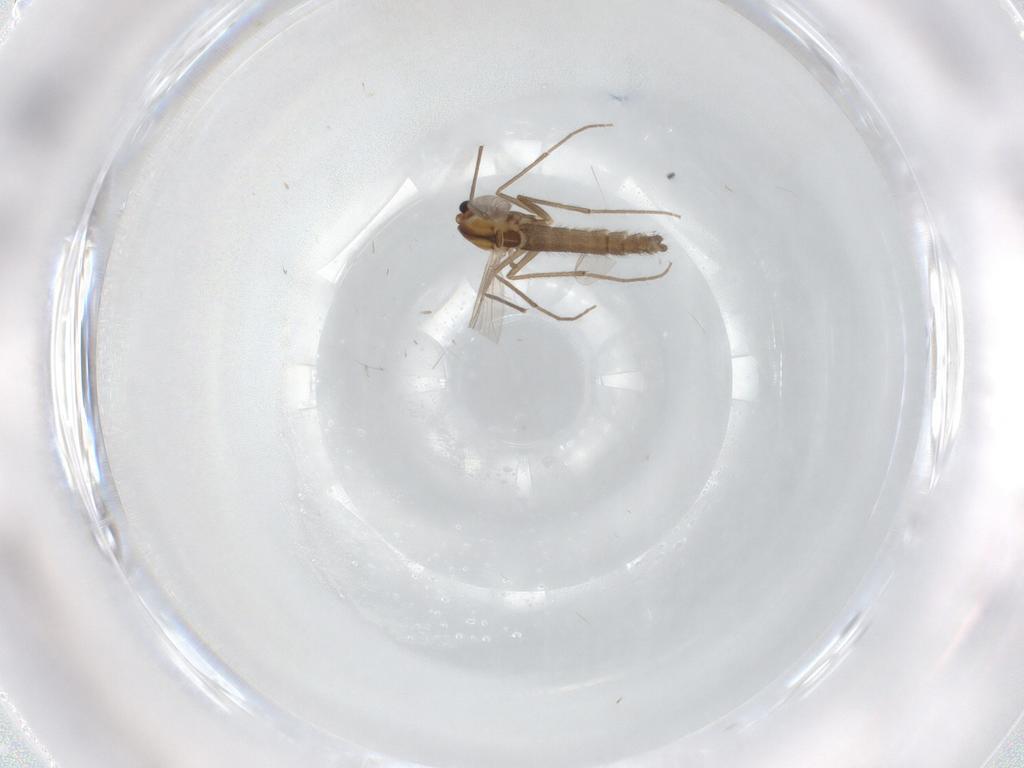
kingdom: Animalia
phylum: Arthropoda
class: Insecta
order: Diptera
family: Chironomidae
